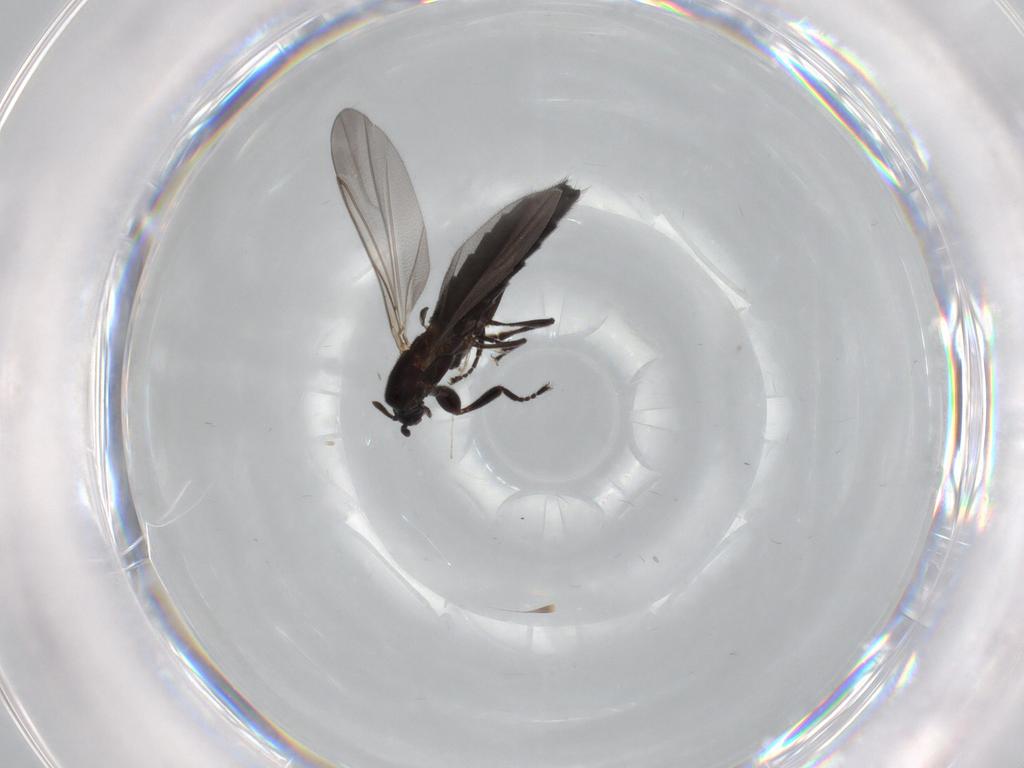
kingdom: Animalia
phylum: Arthropoda
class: Insecta
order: Diptera
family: Scatopsidae
